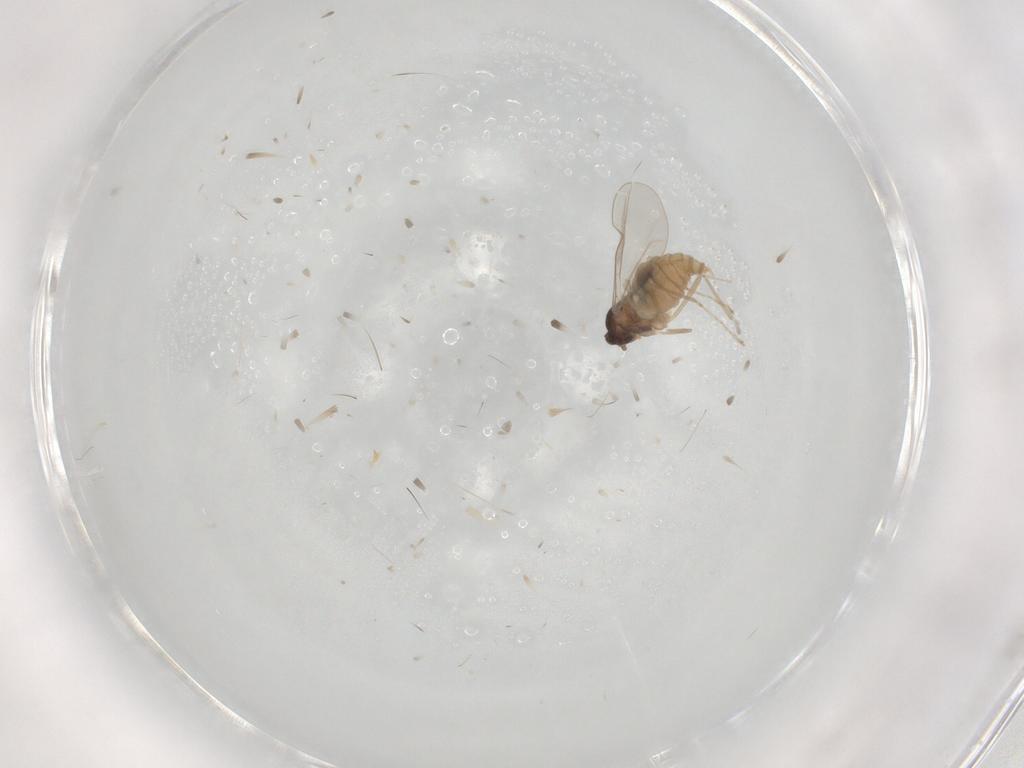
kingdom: Animalia
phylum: Arthropoda
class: Insecta
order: Diptera
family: Cecidomyiidae
